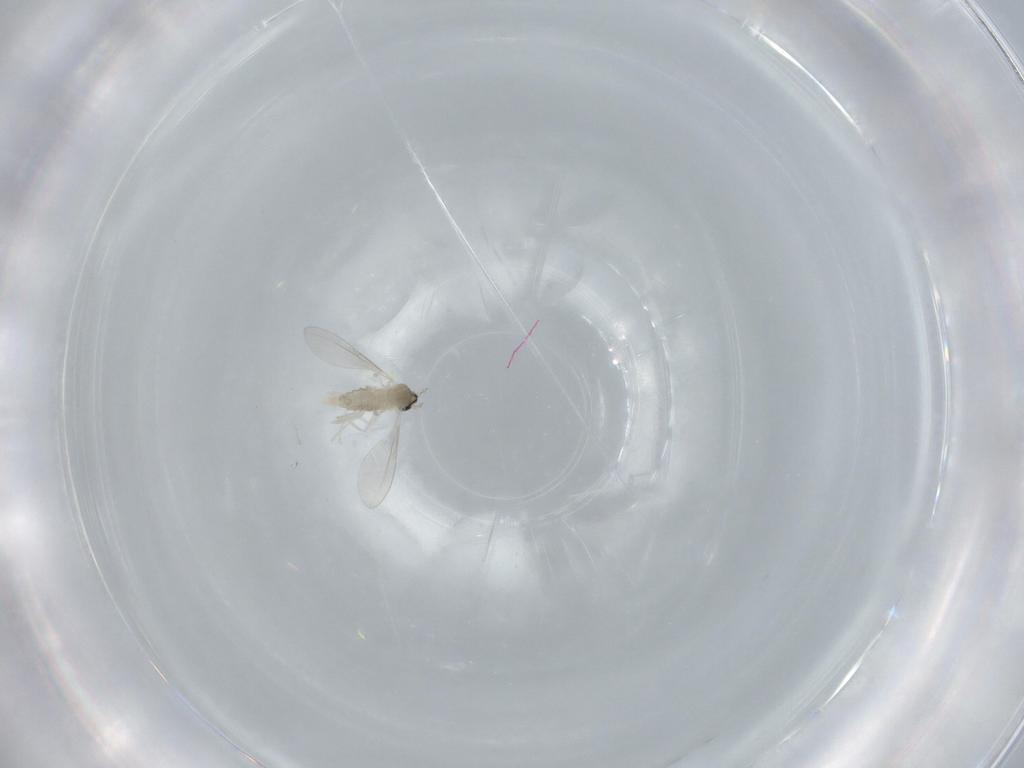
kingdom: Animalia
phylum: Arthropoda
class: Insecta
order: Diptera
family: Cecidomyiidae
